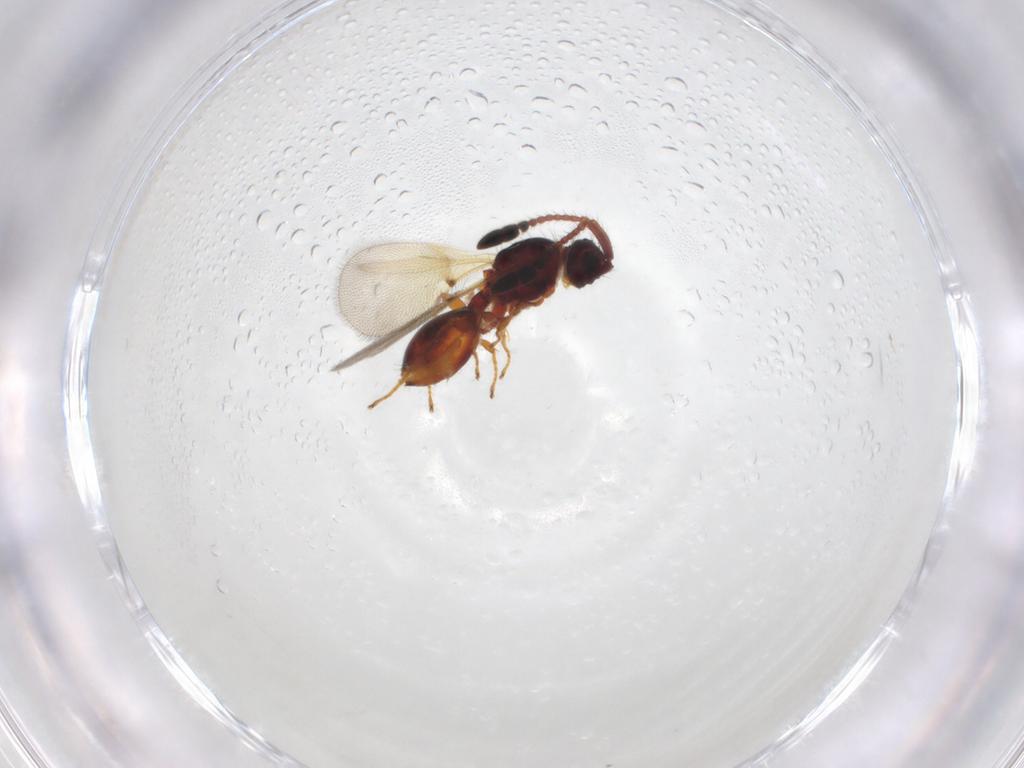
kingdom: Animalia
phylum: Arthropoda
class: Insecta
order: Hymenoptera
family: Diapriidae
